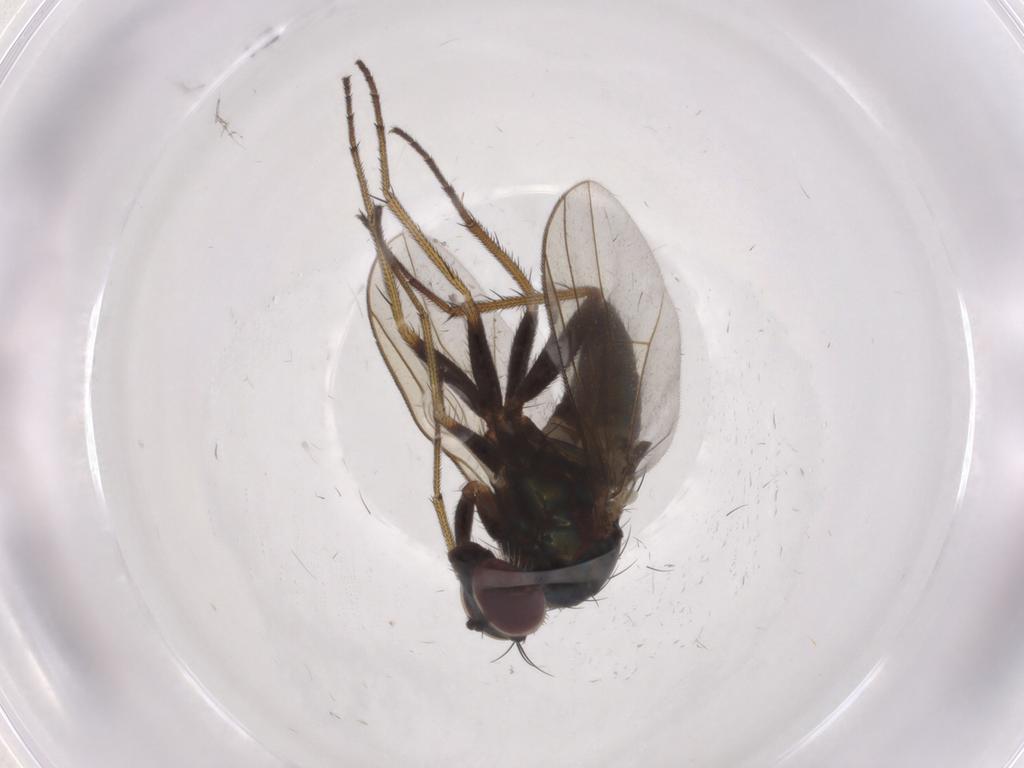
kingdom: Animalia
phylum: Arthropoda
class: Insecta
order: Diptera
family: Dolichopodidae
